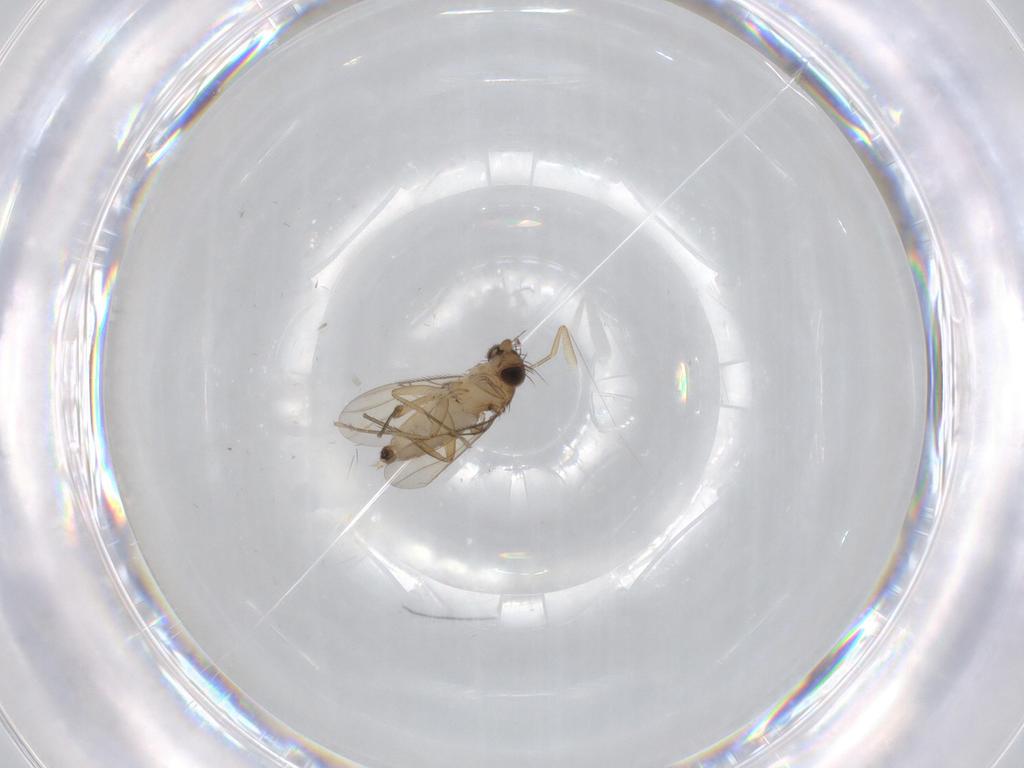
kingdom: Animalia
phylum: Arthropoda
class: Insecta
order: Diptera
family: Phoridae
